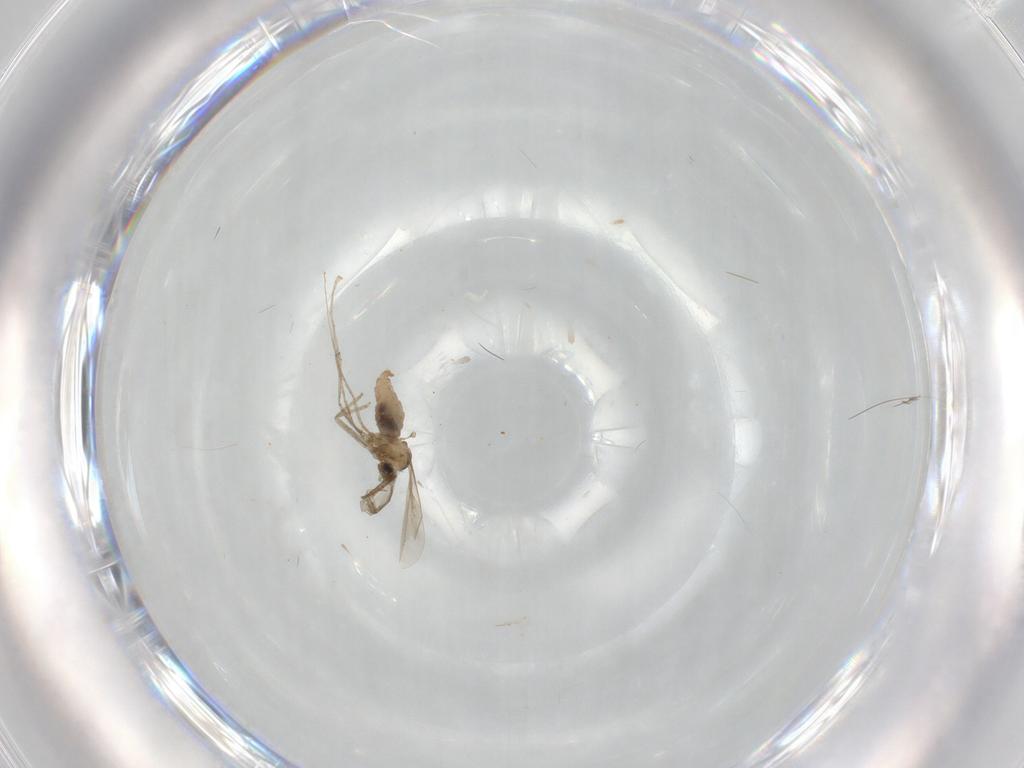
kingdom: Animalia
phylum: Arthropoda
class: Insecta
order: Diptera
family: Cecidomyiidae
